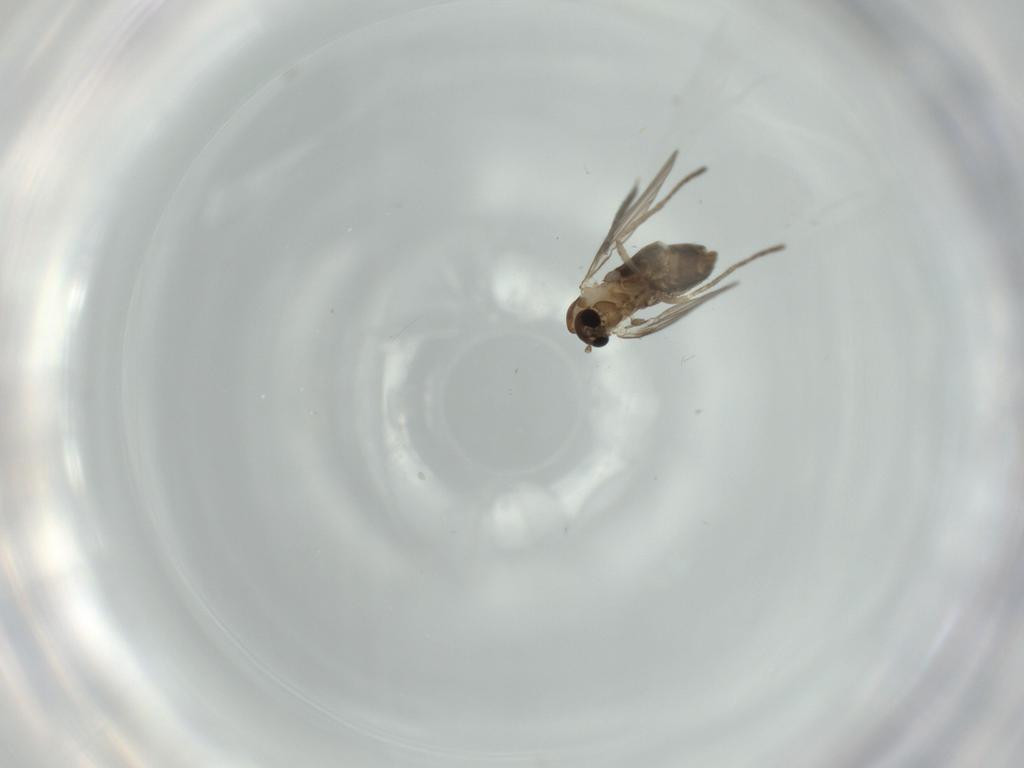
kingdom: Animalia
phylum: Arthropoda
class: Insecta
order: Diptera
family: Psychodidae
